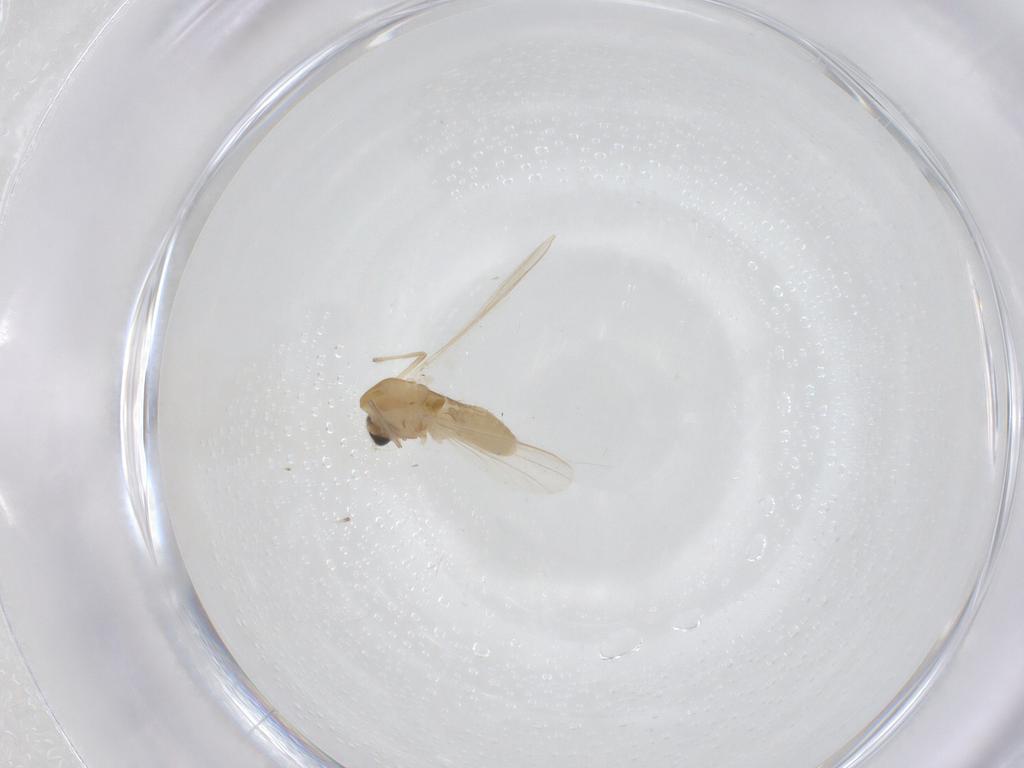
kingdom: Animalia
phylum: Arthropoda
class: Insecta
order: Diptera
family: Chironomidae
